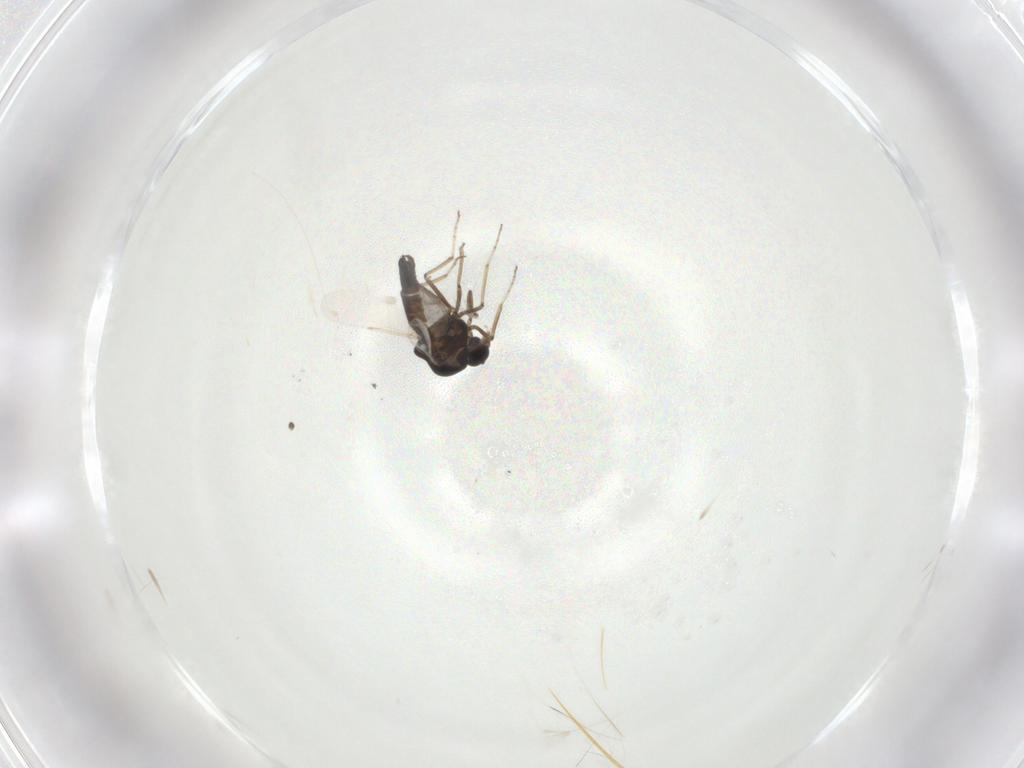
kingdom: Animalia
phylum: Arthropoda
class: Insecta
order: Diptera
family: Ceratopogonidae
